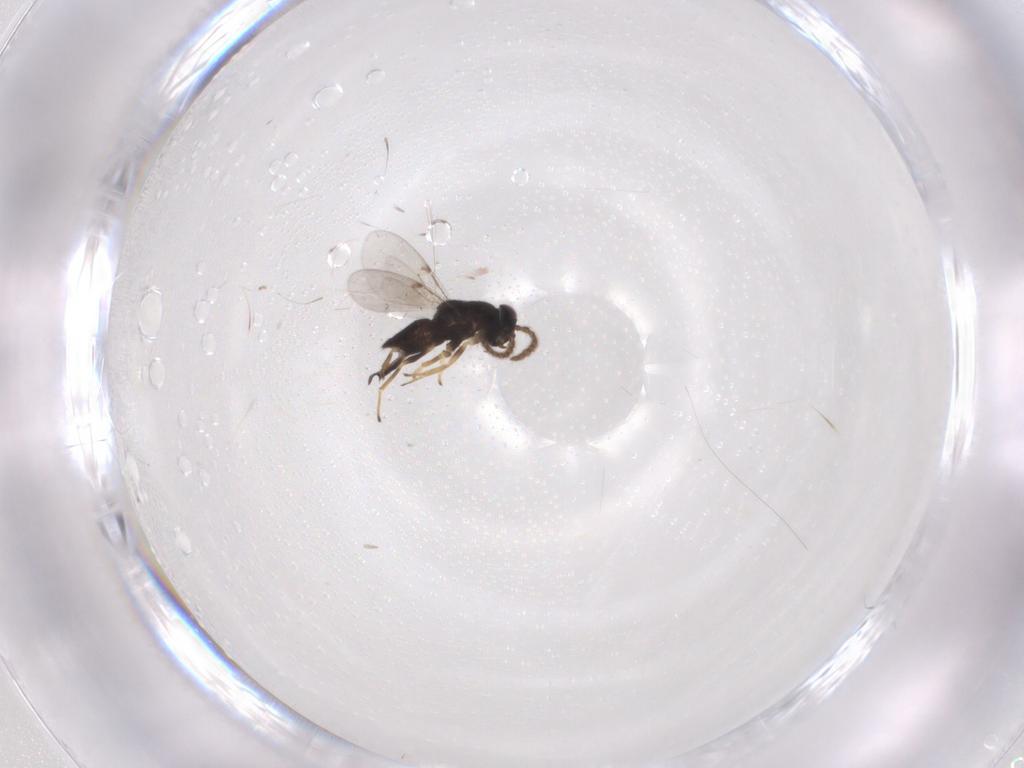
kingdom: Animalia
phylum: Arthropoda
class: Insecta
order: Hymenoptera
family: Encyrtidae
